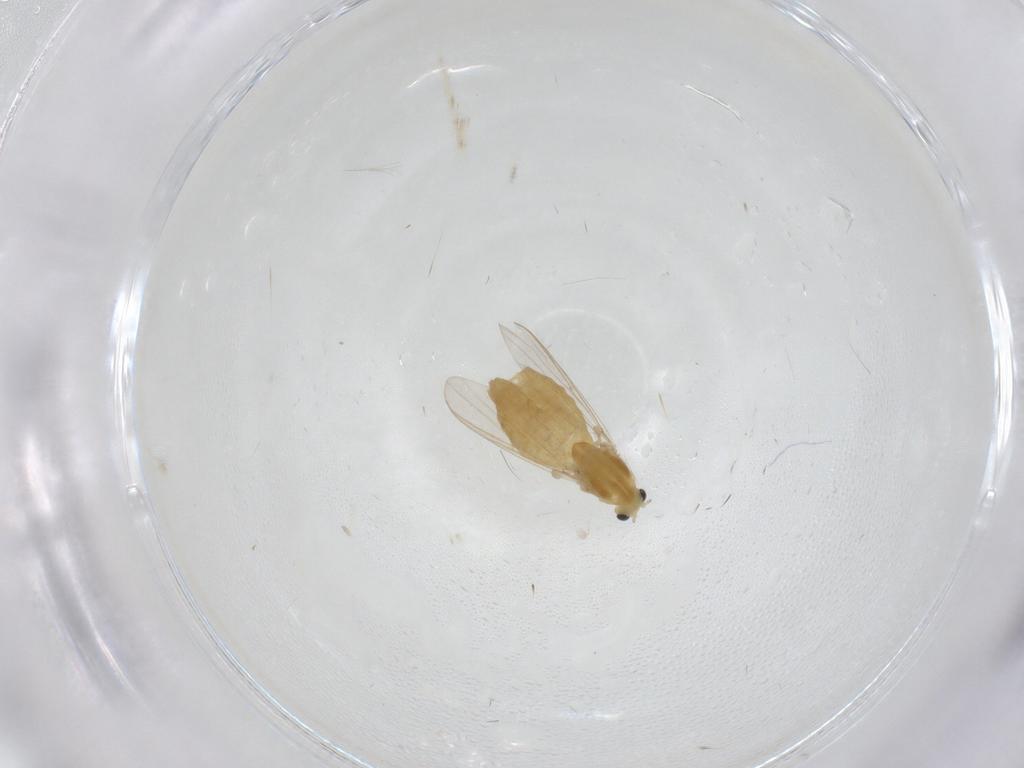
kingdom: Animalia
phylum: Arthropoda
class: Insecta
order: Diptera
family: Chironomidae
